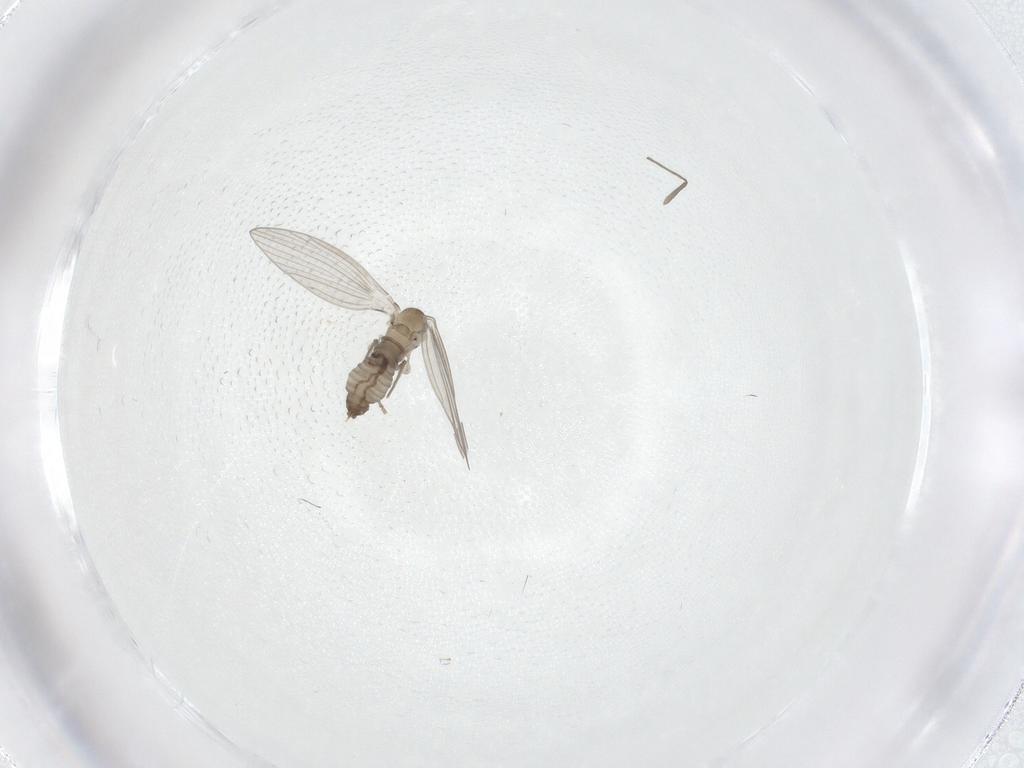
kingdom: Animalia
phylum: Arthropoda
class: Insecta
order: Diptera
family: Psychodidae
